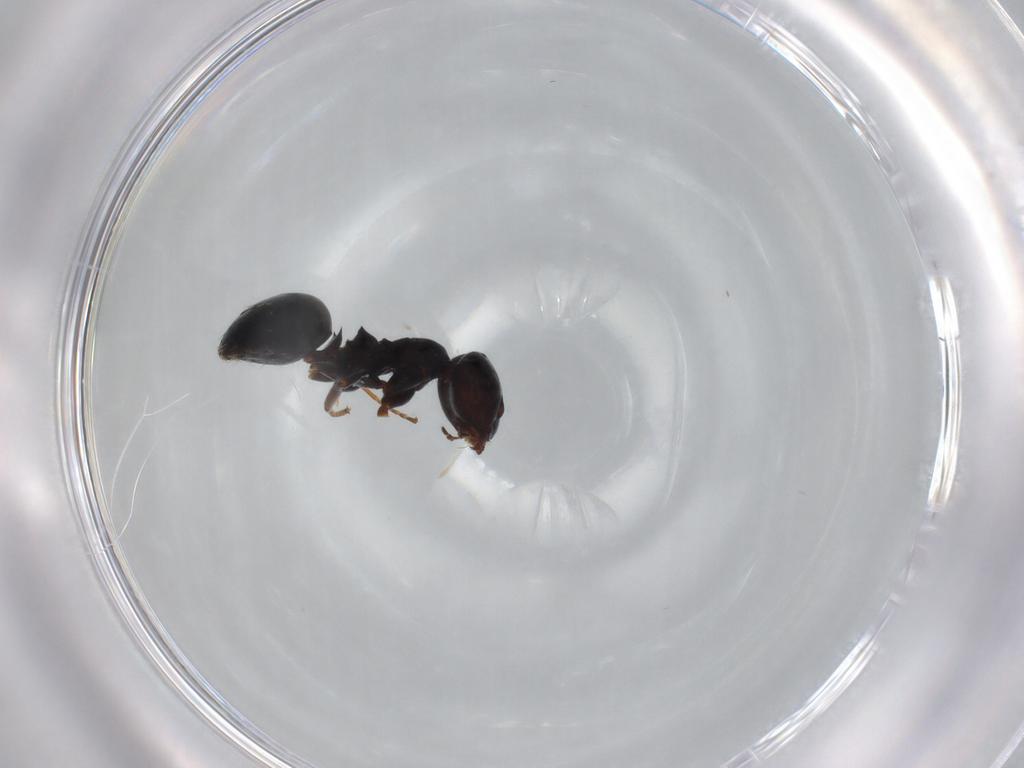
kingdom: Animalia
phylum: Arthropoda
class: Insecta
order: Hymenoptera
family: Formicidae
